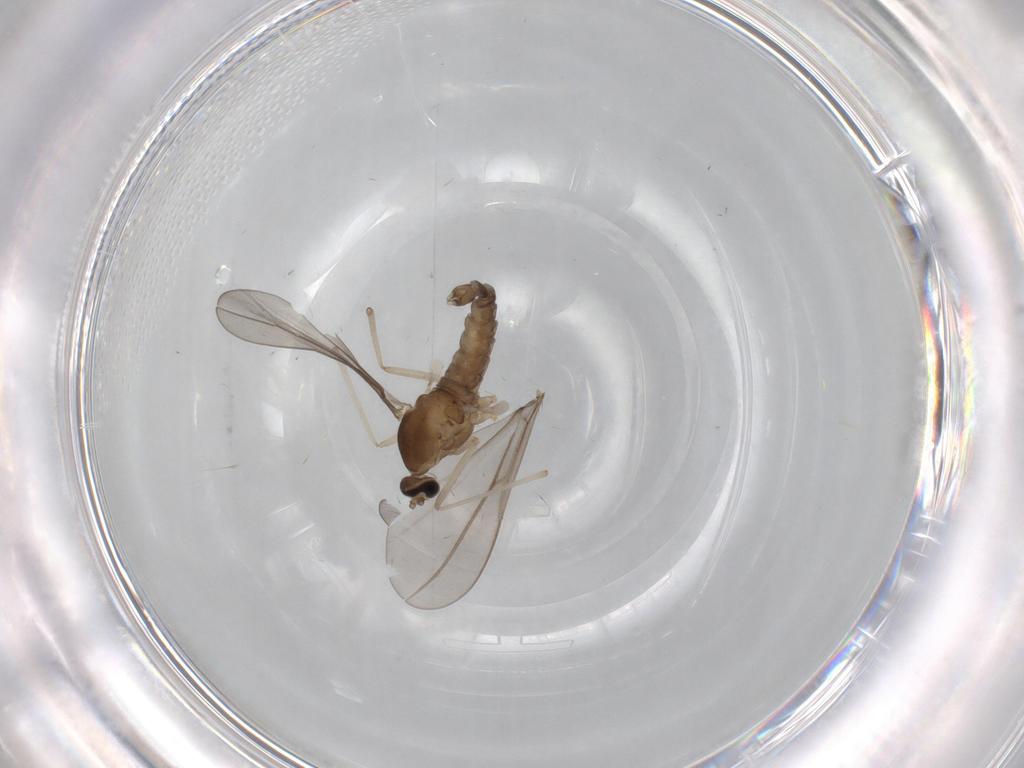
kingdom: Animalia
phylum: Arthropoda
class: Insecta
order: Diptera
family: Cecidomyiidae
